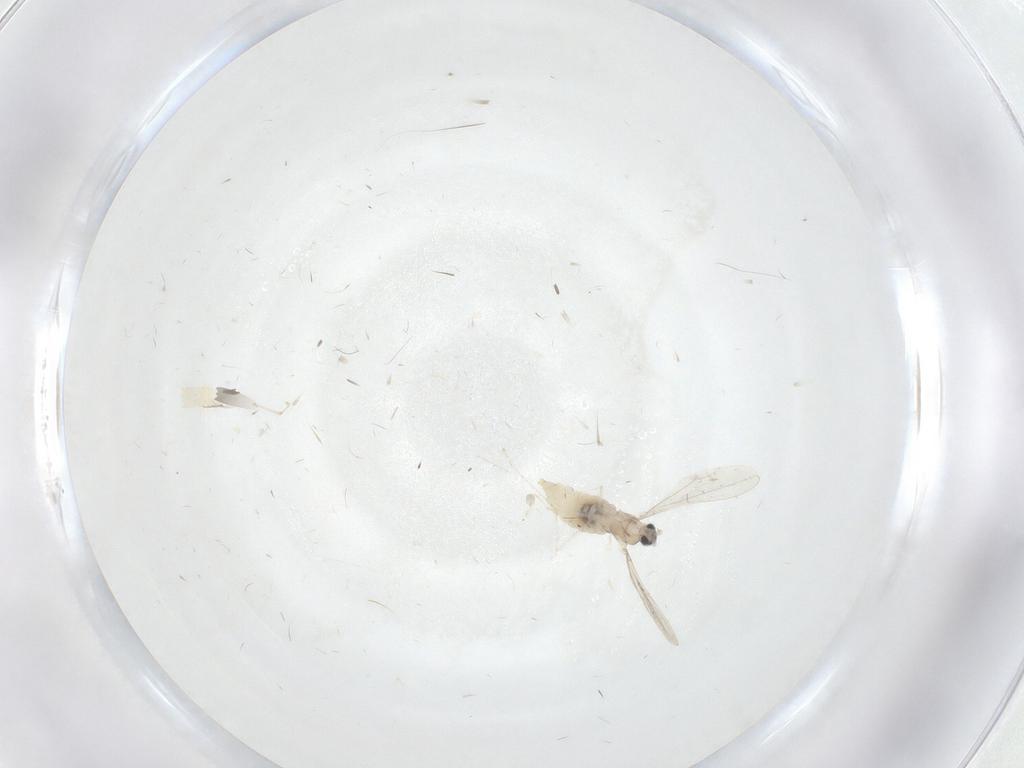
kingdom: Animalia
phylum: Arthropoda
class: Insecta
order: Diptera
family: Cecidomyiidae
